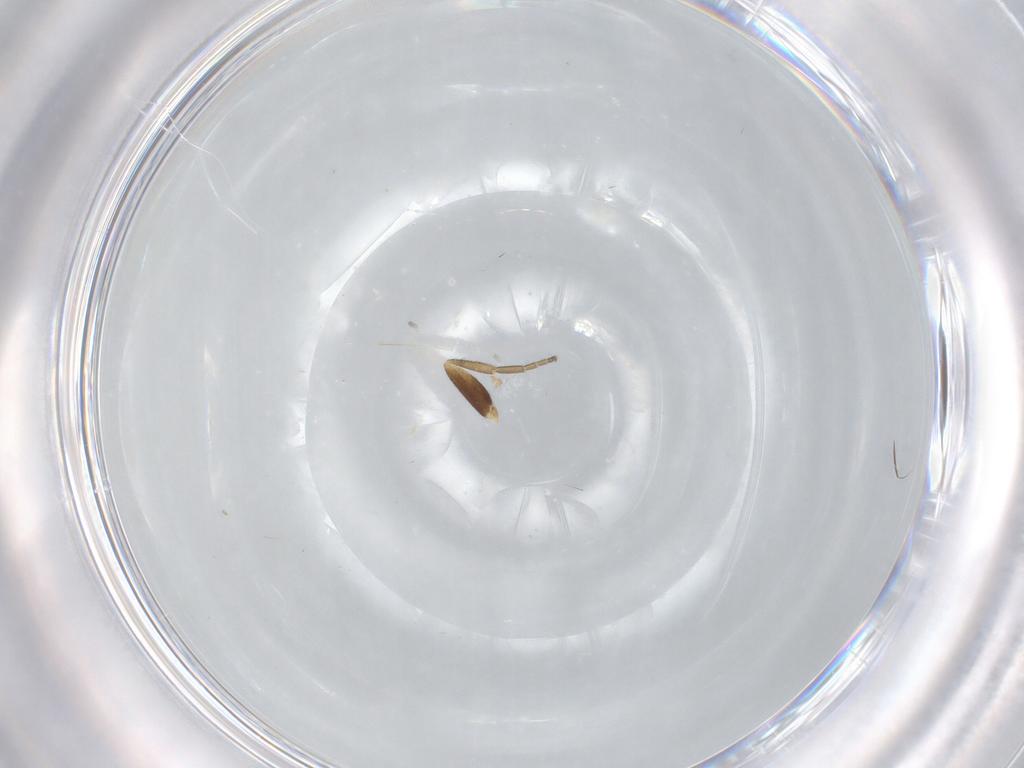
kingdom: Animalia
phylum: Arthropoda
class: Insecta
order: Diptera
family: Phoridae
